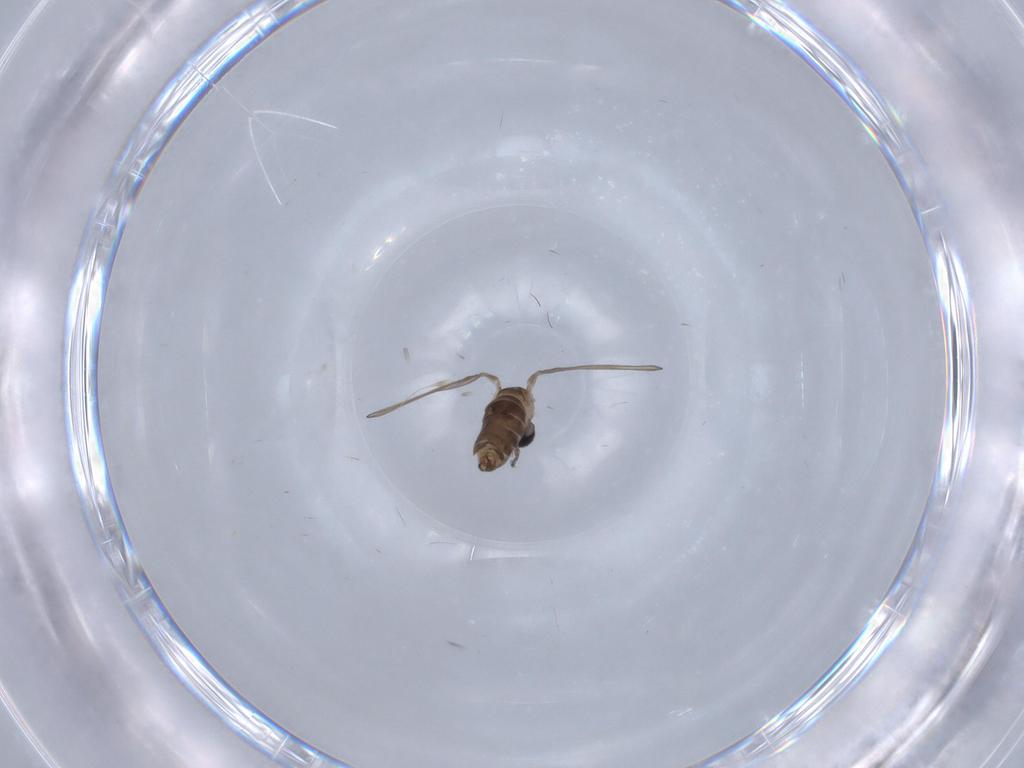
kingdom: Animalia
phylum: Arthropoda
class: Insecta
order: Diptera
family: Psychodidae
